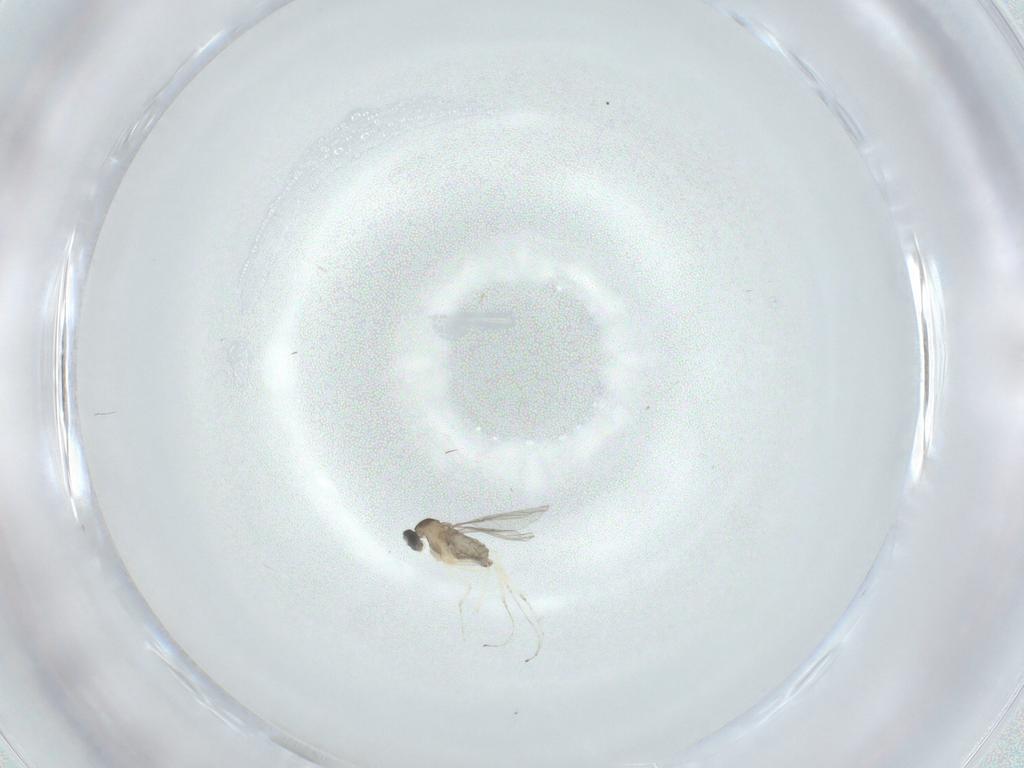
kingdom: Animalia
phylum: Arthropoda
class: Insecta
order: Diptera
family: Cecidomyiidae
